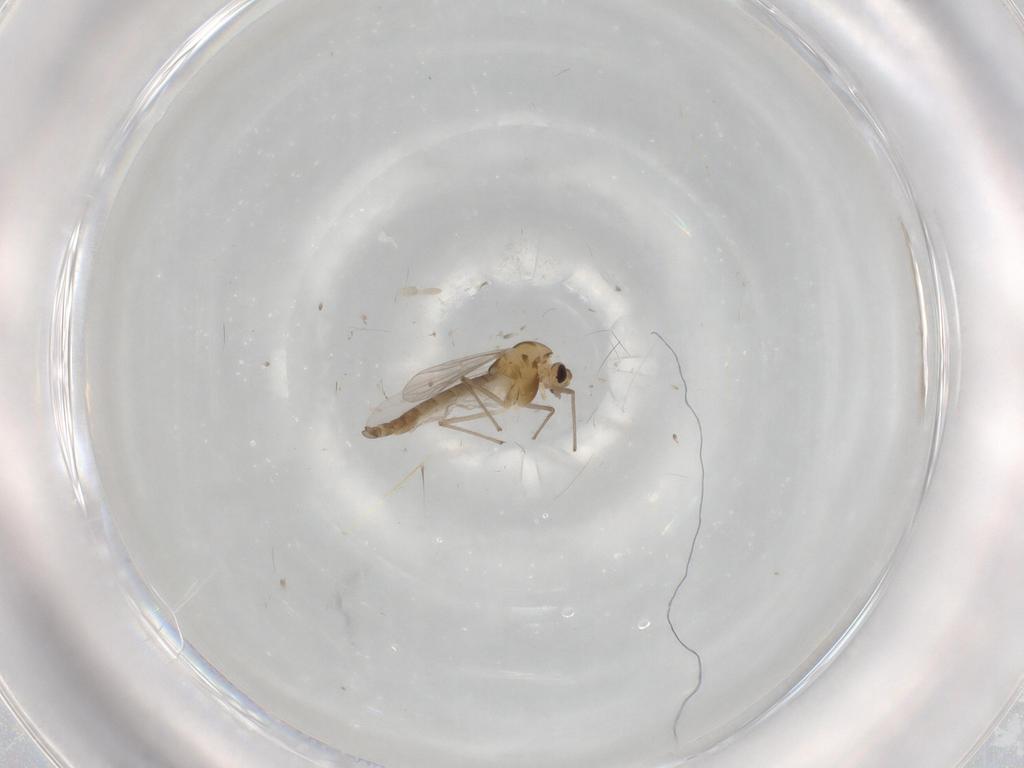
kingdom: Animalia
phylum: Arthropoda
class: Insecta
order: Diptera
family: Chironomidae
